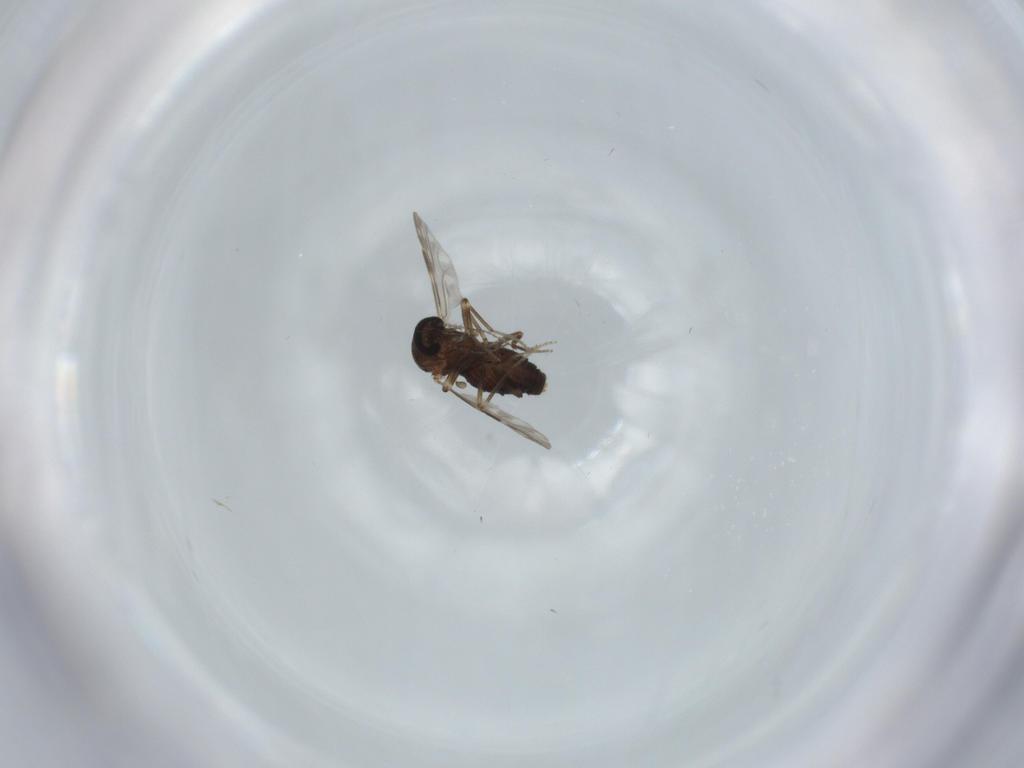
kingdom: Animalia
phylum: Arthropoda
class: Insecta
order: Diptera
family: Ceratopogonidae
